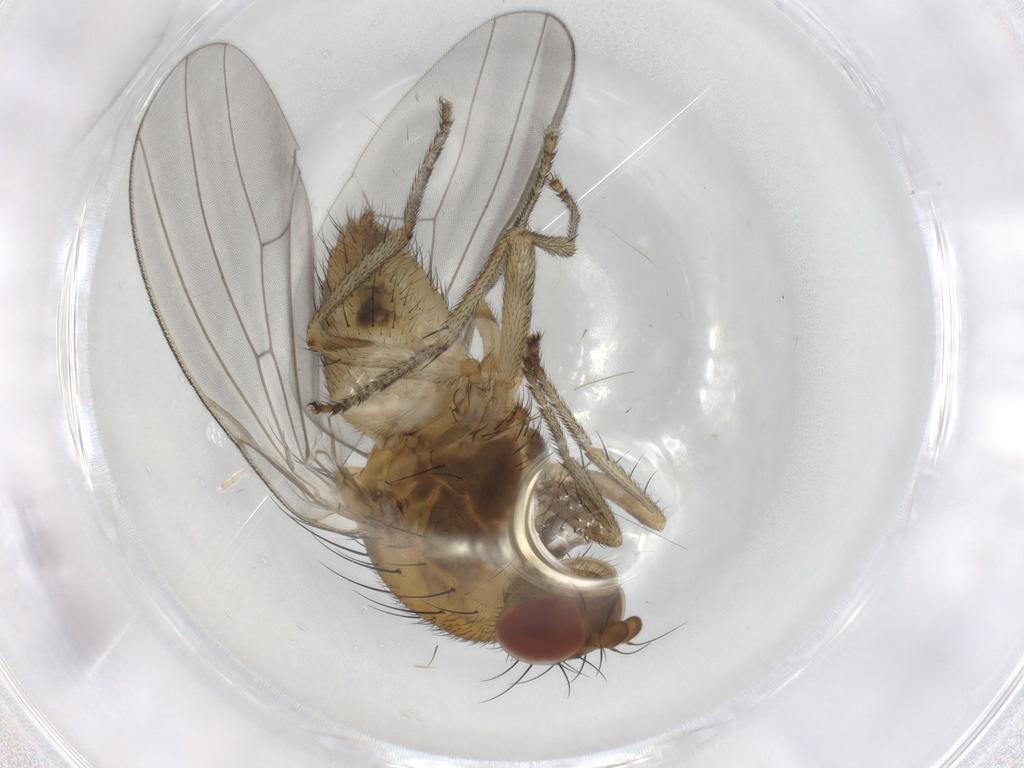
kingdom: Animalia
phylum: Arthropoda
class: Insecta
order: Diptera
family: Lauxaniidae
